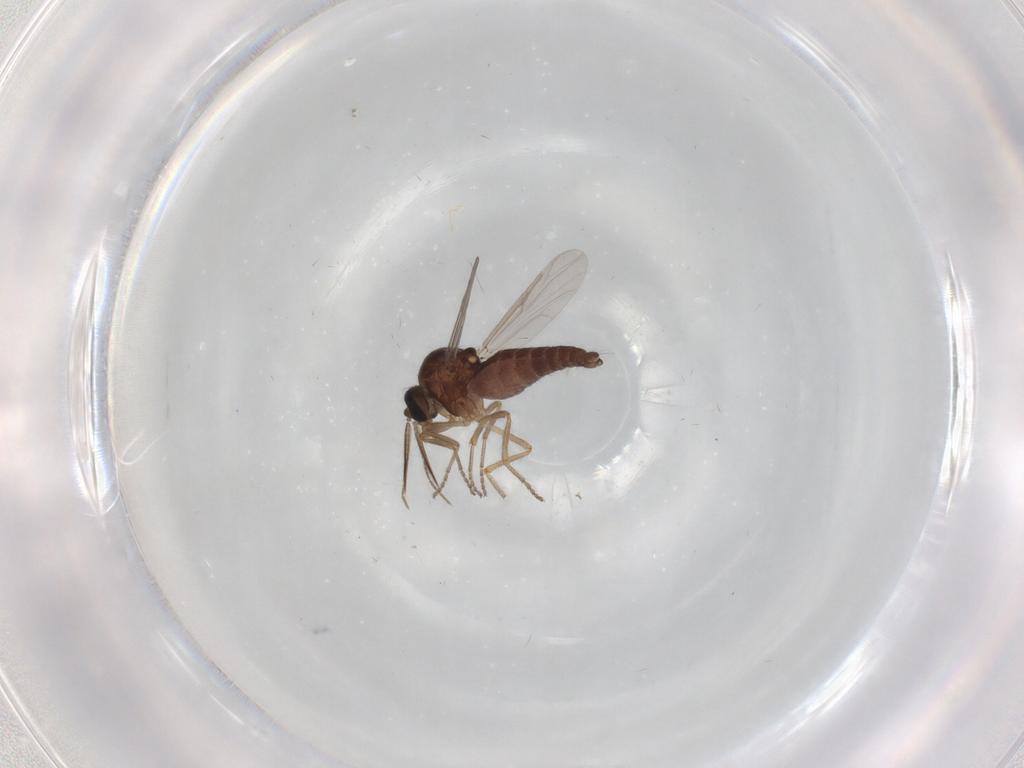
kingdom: Animalia
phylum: Arthropoda
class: Insecta
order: Diptera
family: Ceratopogonidae
